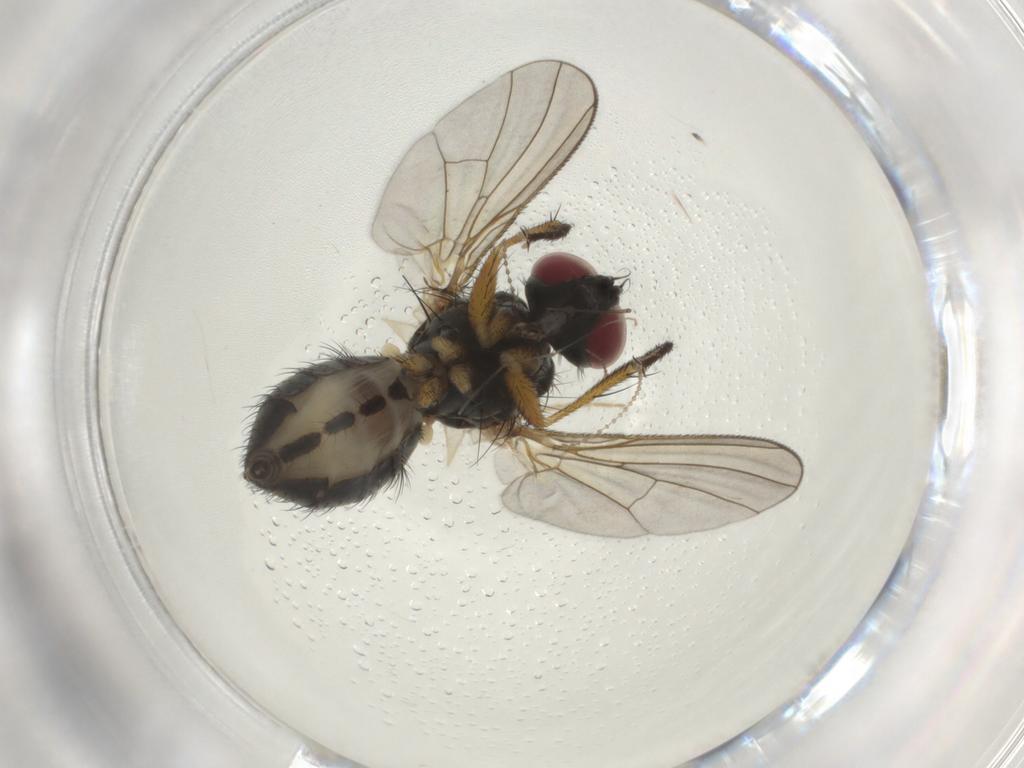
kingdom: Animalia
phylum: Arthropoda
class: Insecta
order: Diptera
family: Muscidae
